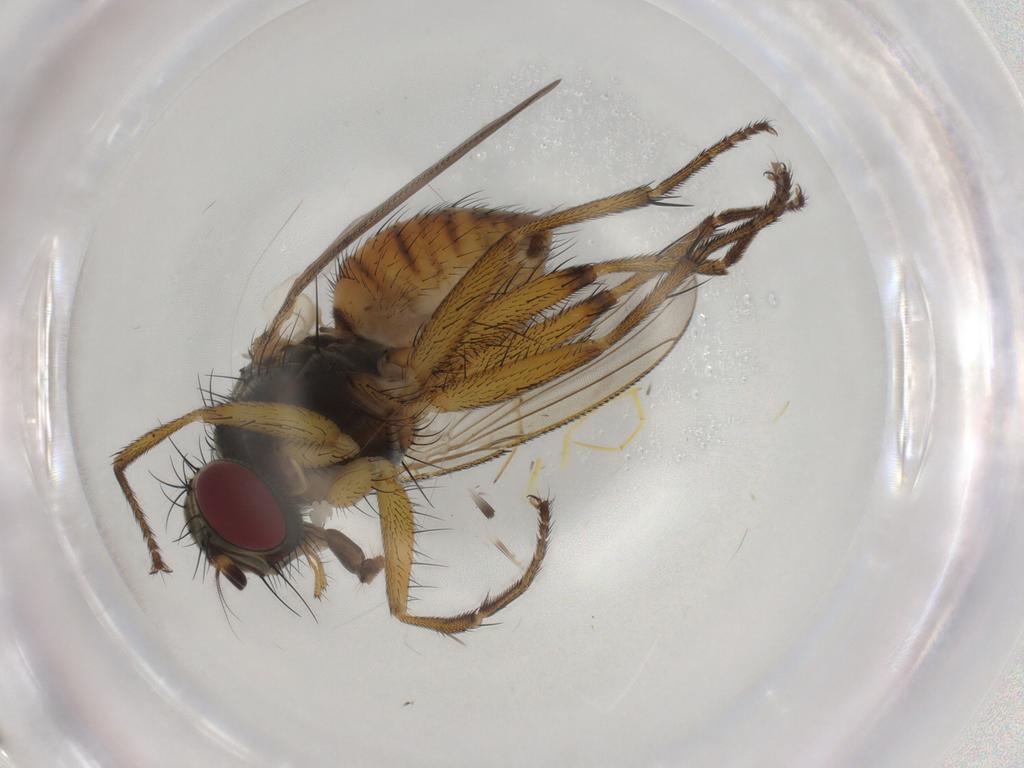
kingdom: Animalia
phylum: Arthropoda
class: Insecta
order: Diptera
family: Muscidae
